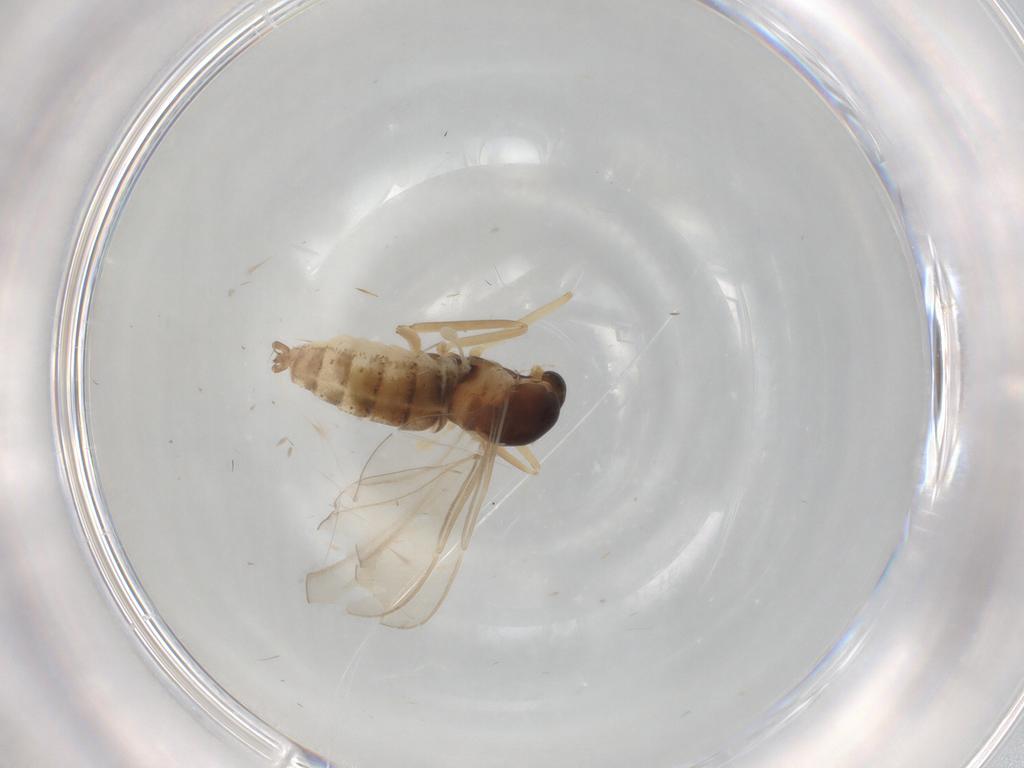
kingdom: Animalia
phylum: Arthropoda
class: Insecta
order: Diptera
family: Cecidomyiidae
